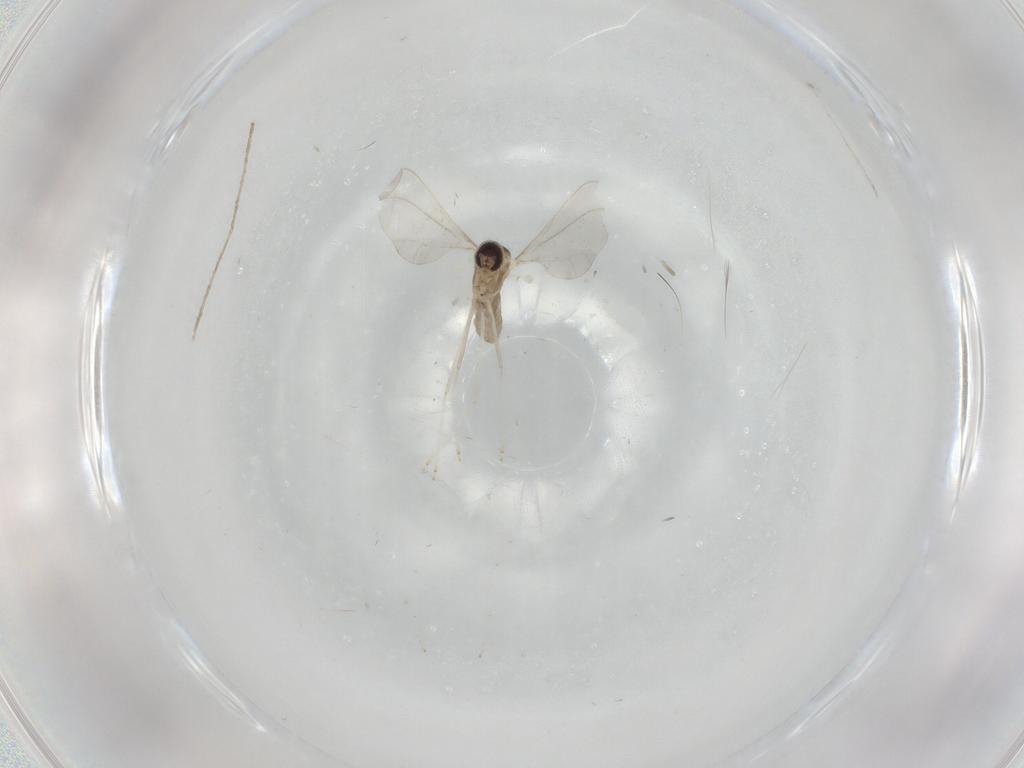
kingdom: Animalia
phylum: Arthropoda
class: Insecta
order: Diptera
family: Cecidomyiidae
